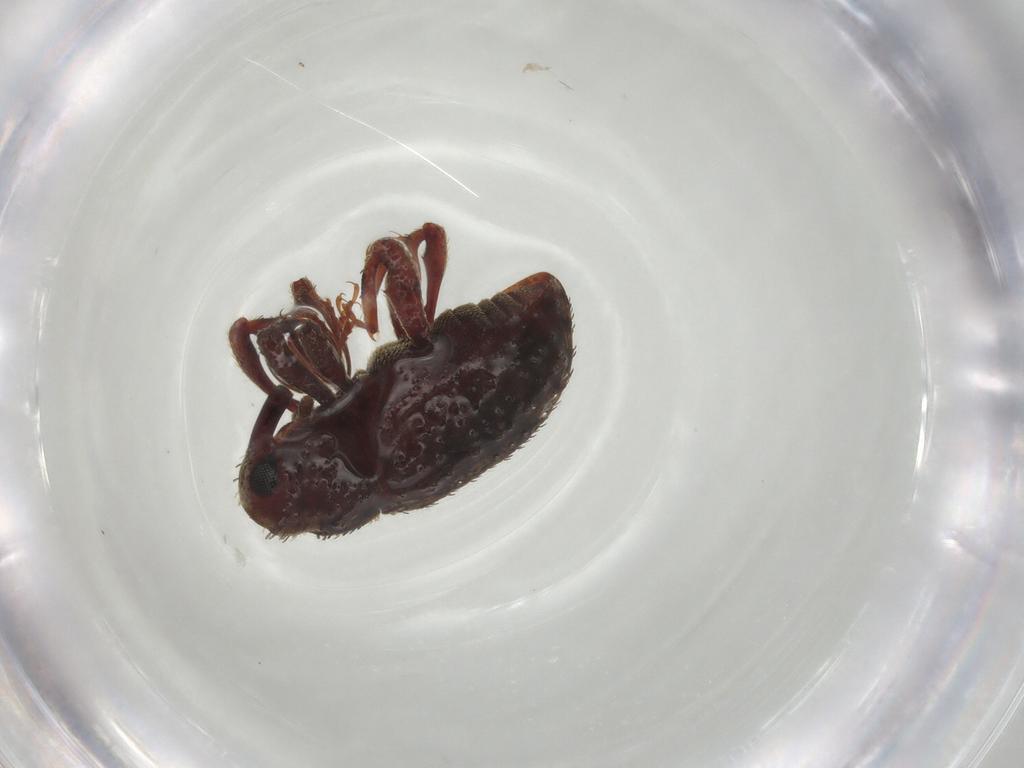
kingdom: Animalia
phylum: Arthropoda
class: Insecta
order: Coleoptera
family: Curculionidae
